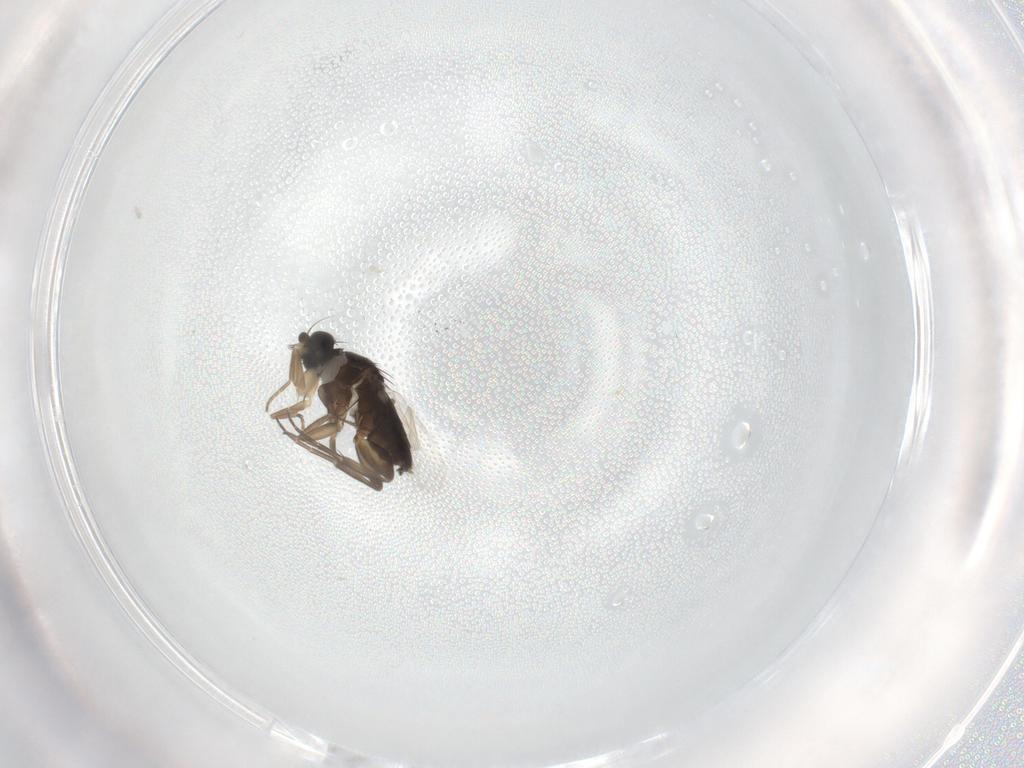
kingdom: Animalia
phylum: Arthropoda
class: Insecta
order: Diptera
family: Phoridae
